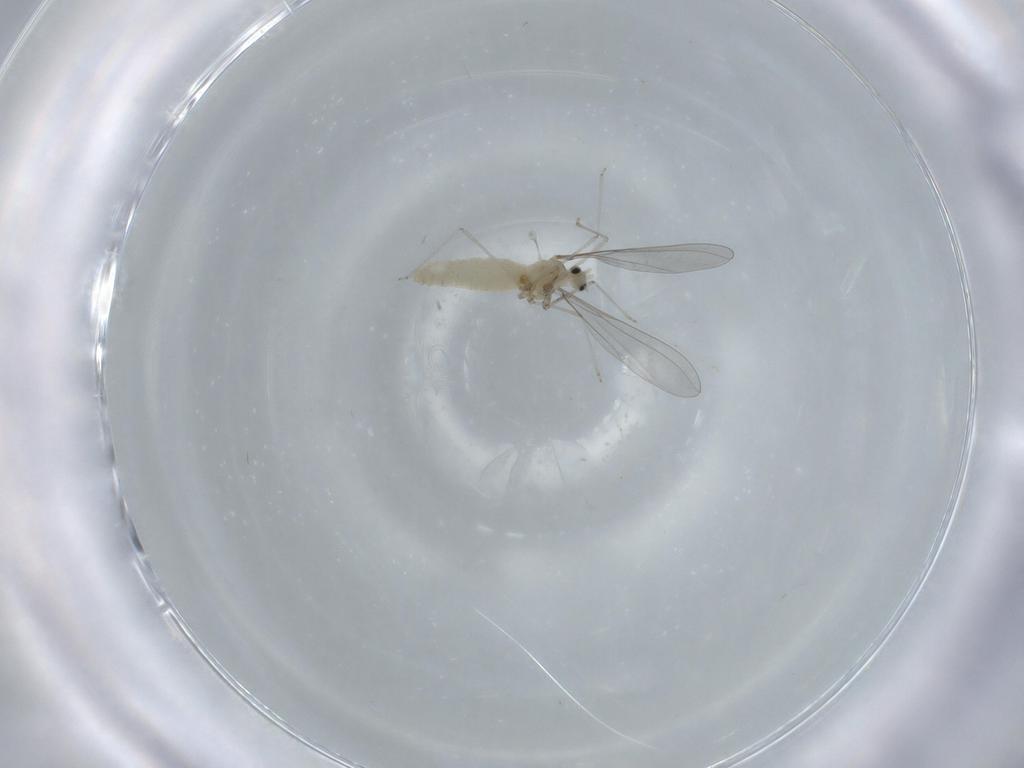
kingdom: Animalia
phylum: Arthropoda
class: Insecta
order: Diptera
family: Cecidomyiidae
